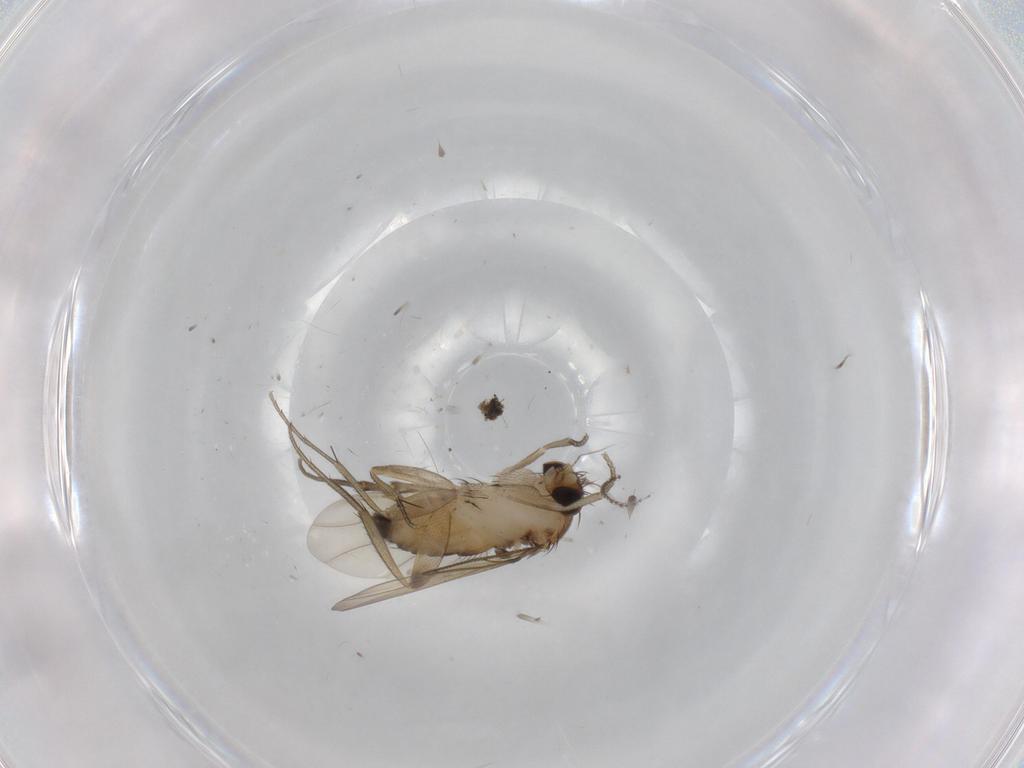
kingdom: Animalia
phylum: Arthropoda
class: Insecta
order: Diptera
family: Phoridae
